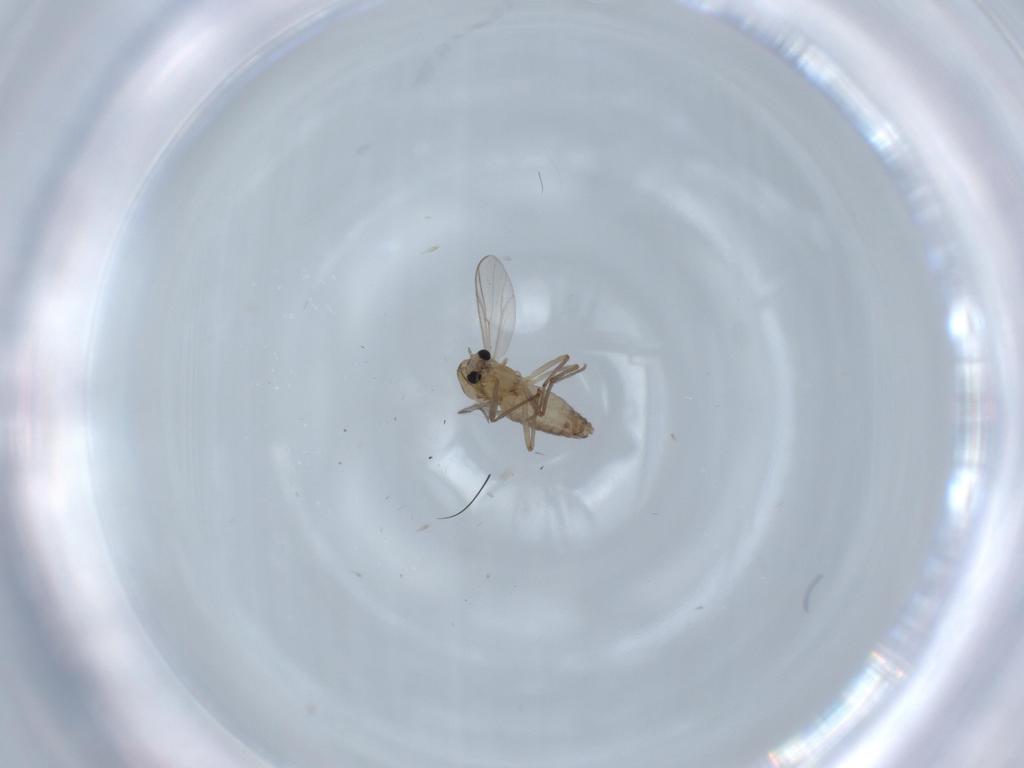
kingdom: Animalia
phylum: Arthropoda
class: Insecta
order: Diptera
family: Chironomidae
